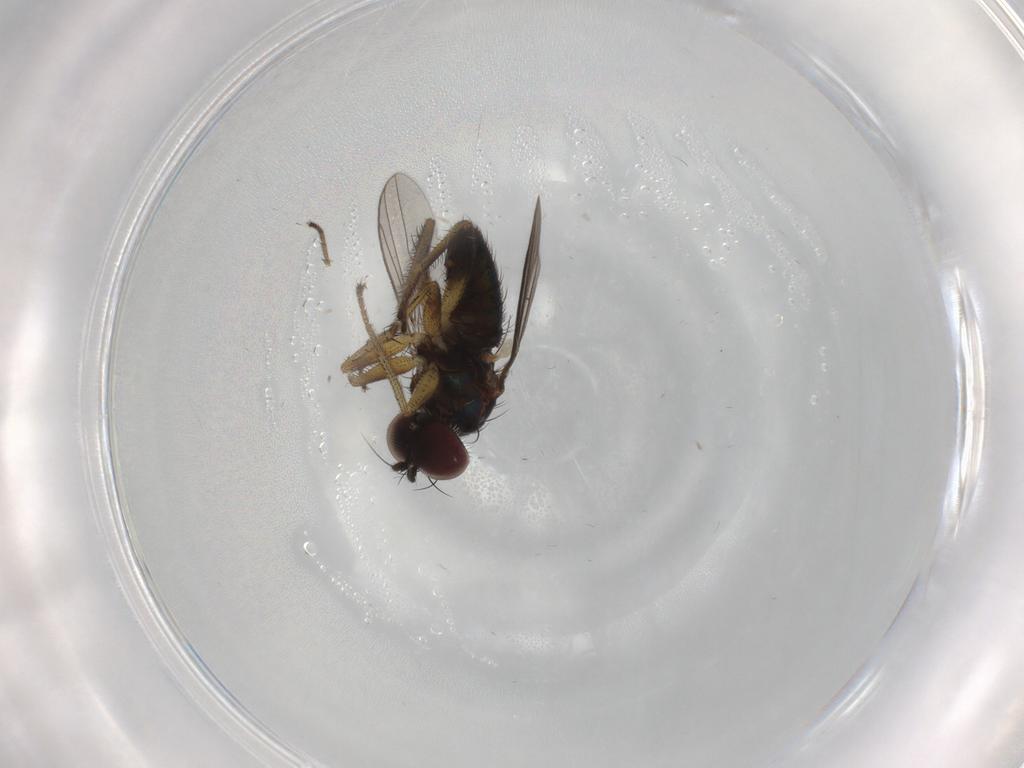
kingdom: Animalia
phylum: Arthropoda
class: Insecta
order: Diptera
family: Dolichopodidae
